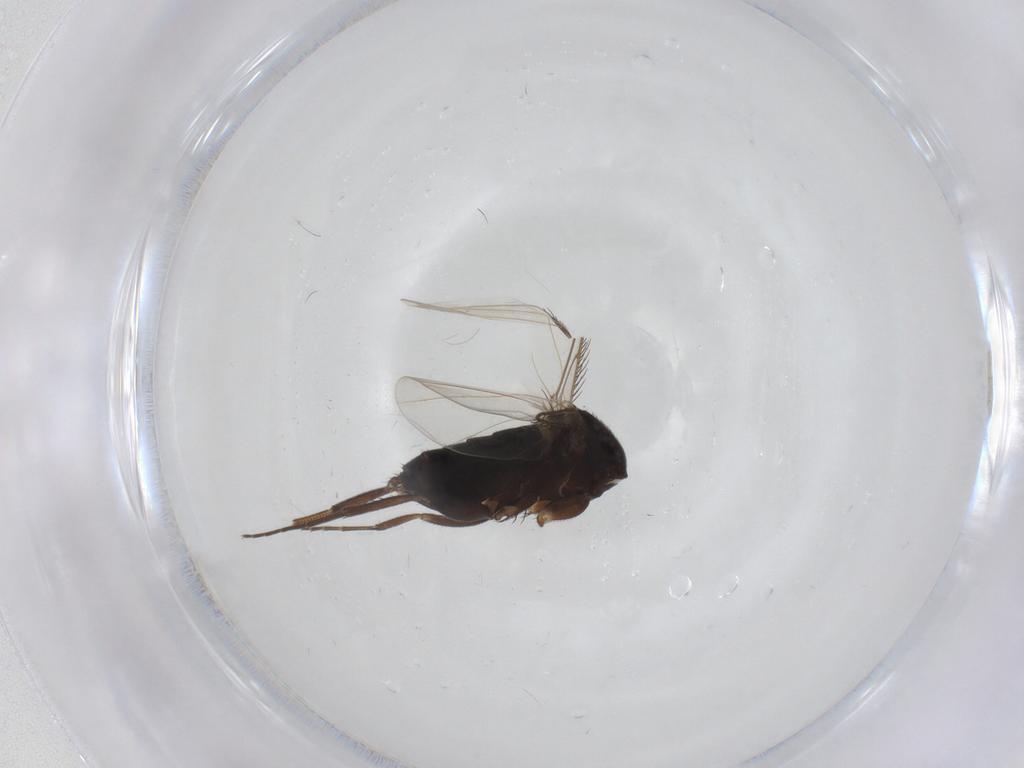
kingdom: Animalia
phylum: Arthropoda
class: Insecta
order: Diptera
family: Phoridae
